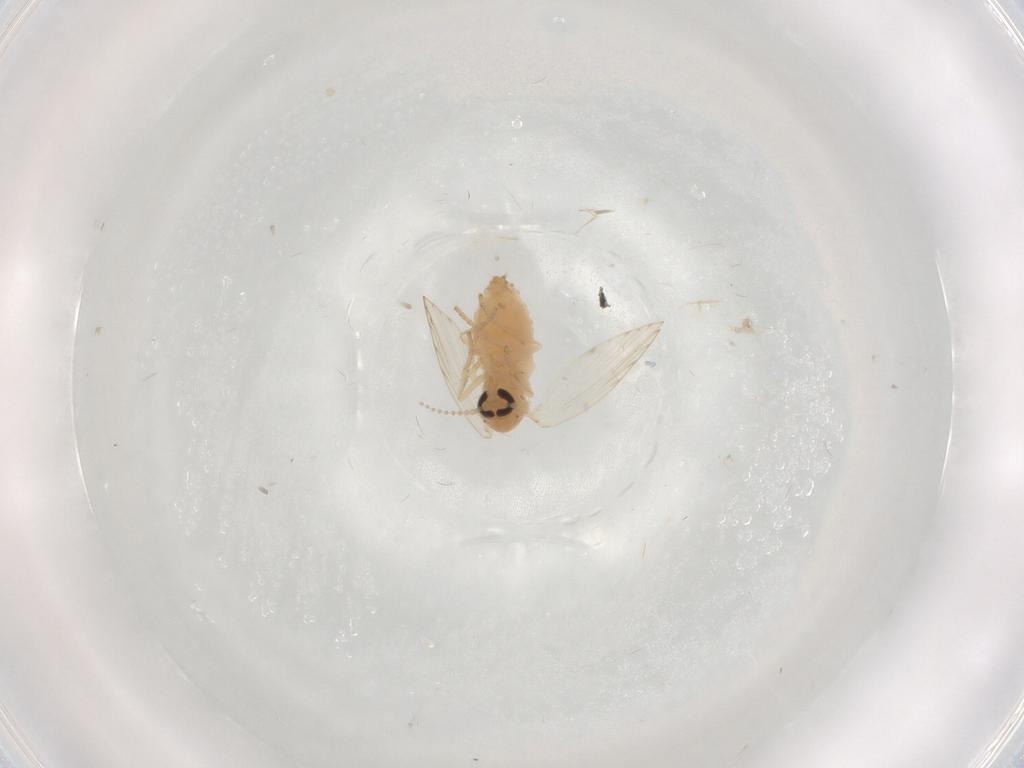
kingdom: Animalia
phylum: Arthropoda
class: Insecta
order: Diptera
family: Psychodidae
